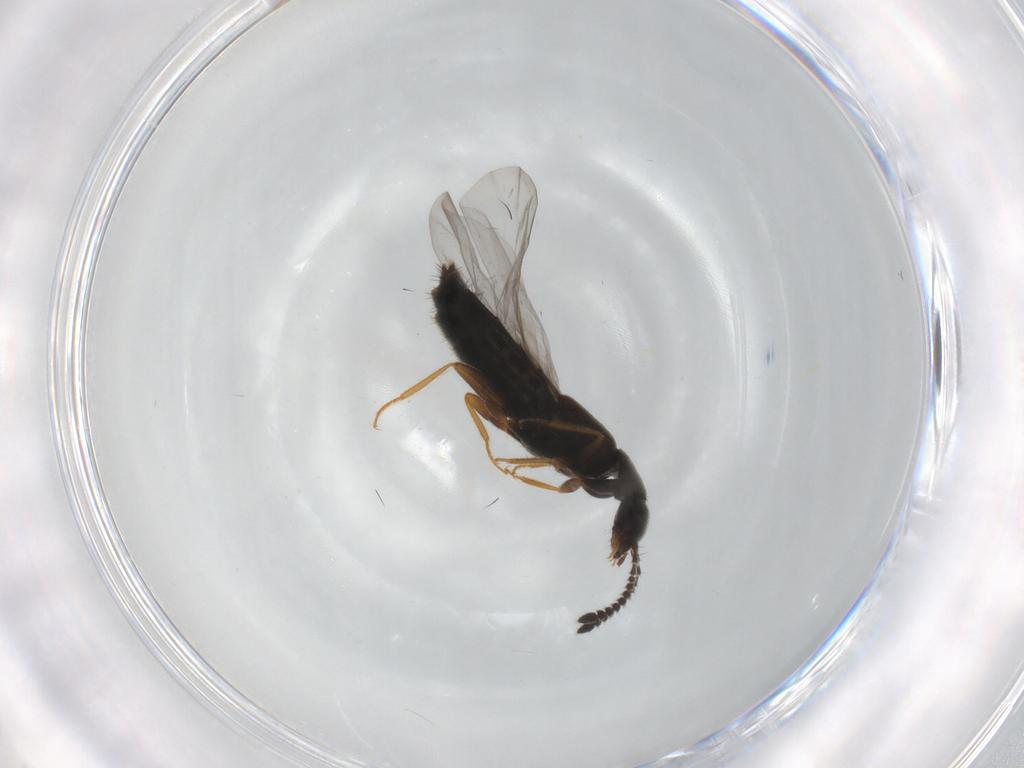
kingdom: Animalia
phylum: Arthropoda
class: Insecta
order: Coleoptera
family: Staphylinidae
